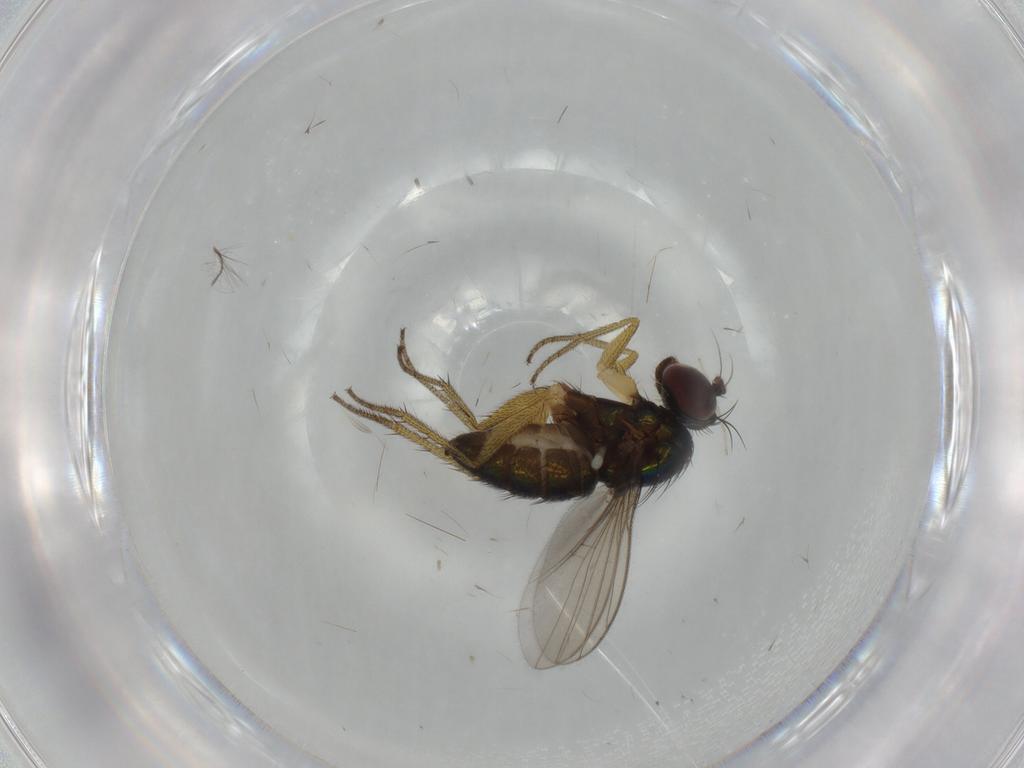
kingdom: Animalia
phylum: Arthropoda
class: Insecta
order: Diptera
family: Dolichopodidae
